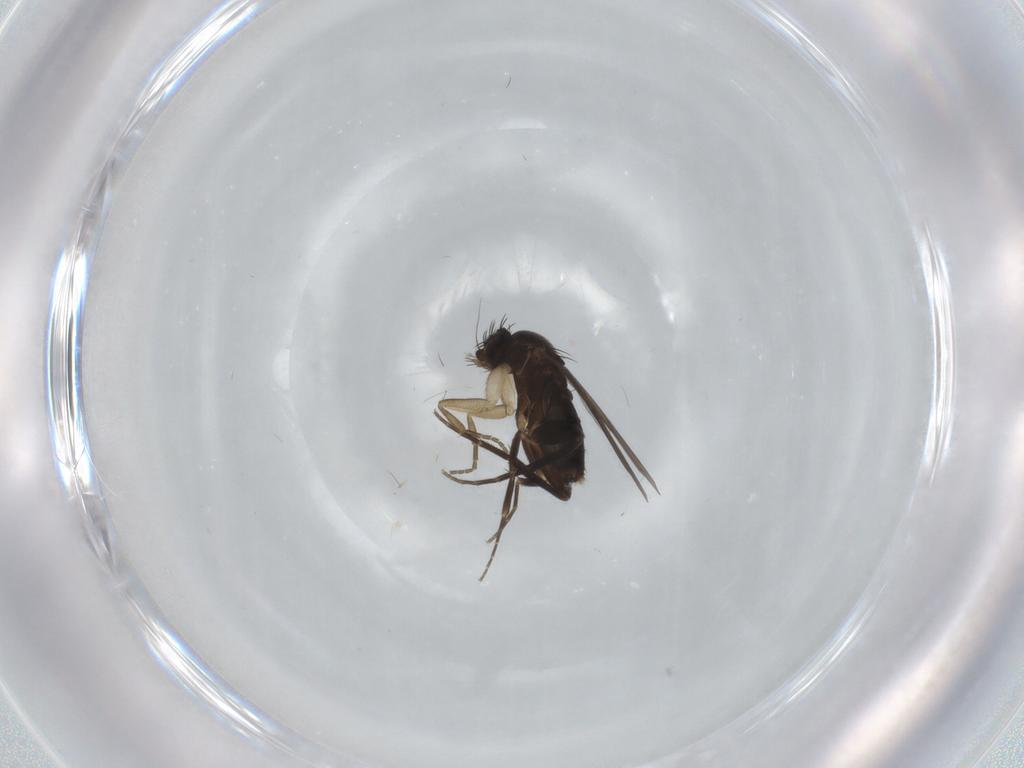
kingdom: Animalia
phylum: Arthropoda
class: Insecta
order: Diptera
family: Phoridae
